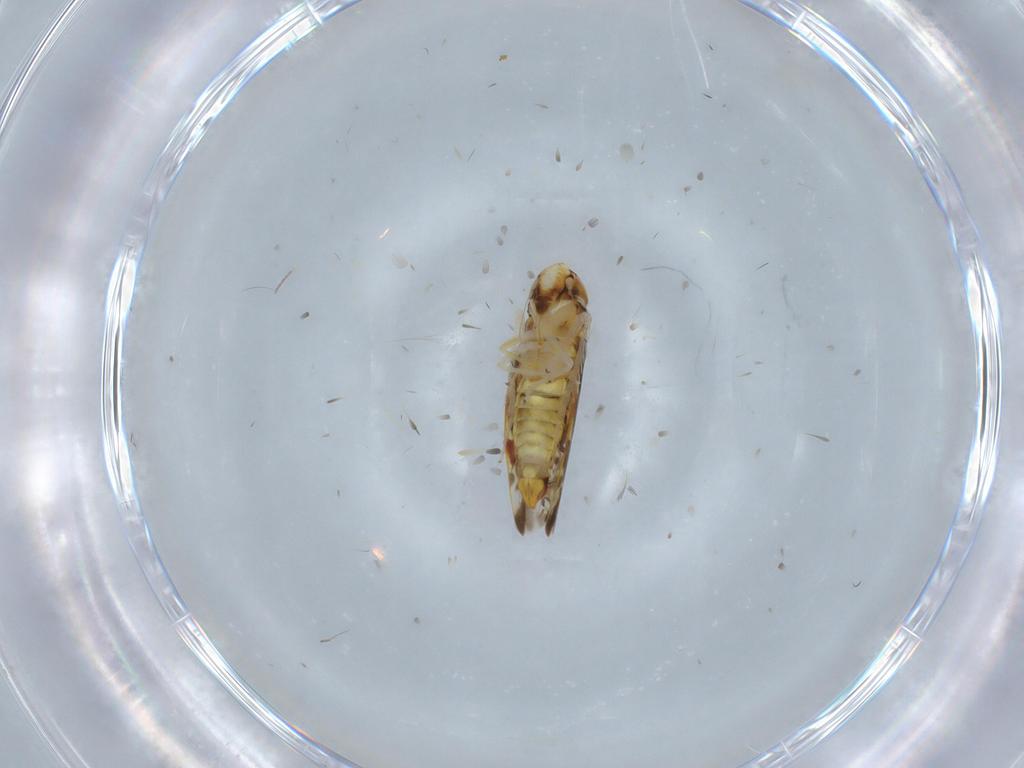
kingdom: Animalia
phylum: Arthropoda
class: Insecta
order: Hemiptera
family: Cicadellidae
